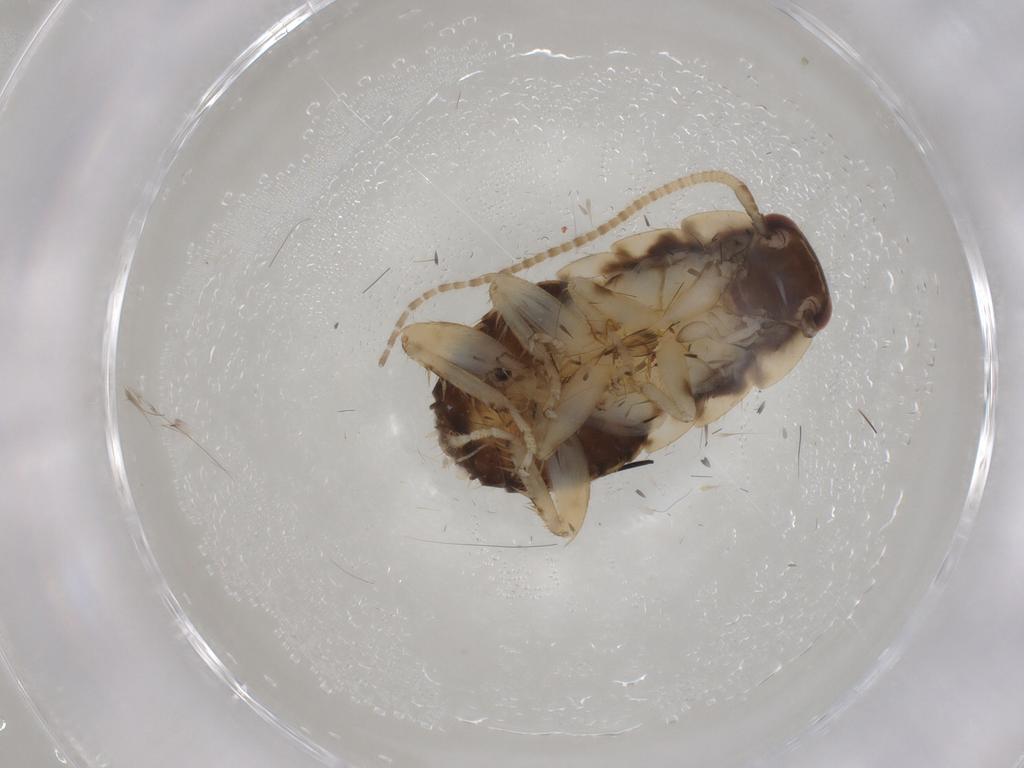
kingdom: Animalia
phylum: Arthropoda
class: Insecta
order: Blattodea
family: Ectobiidae
